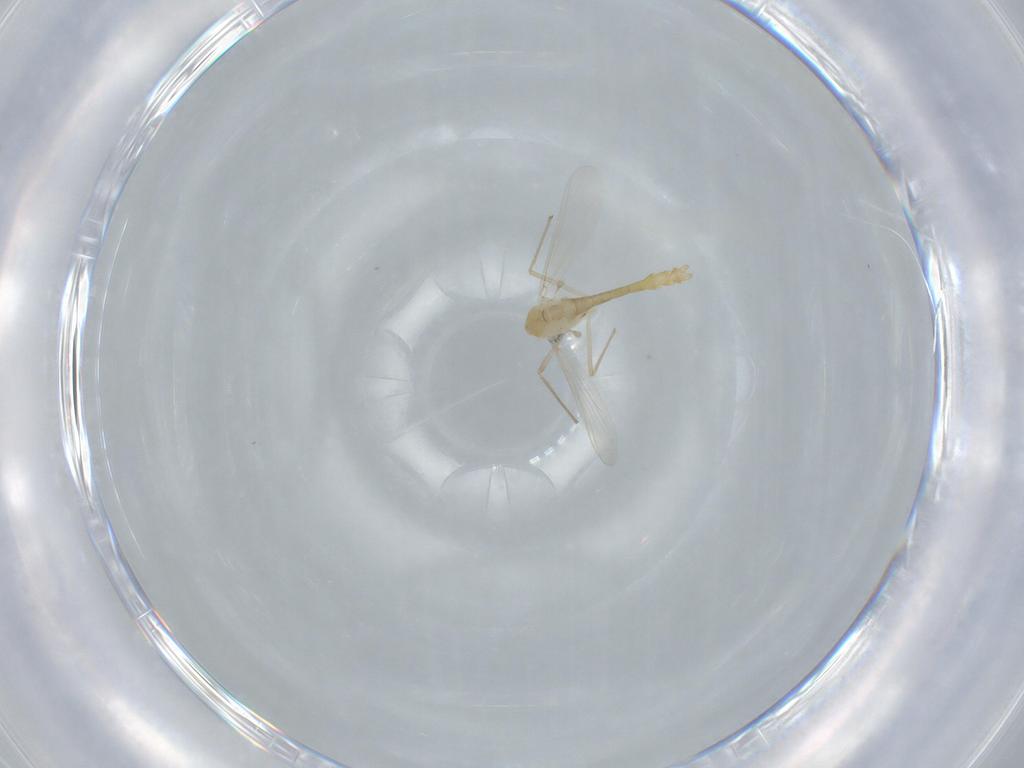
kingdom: Animalia
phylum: Arthropoda
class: Insecta
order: Diptera
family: Chironomidae
